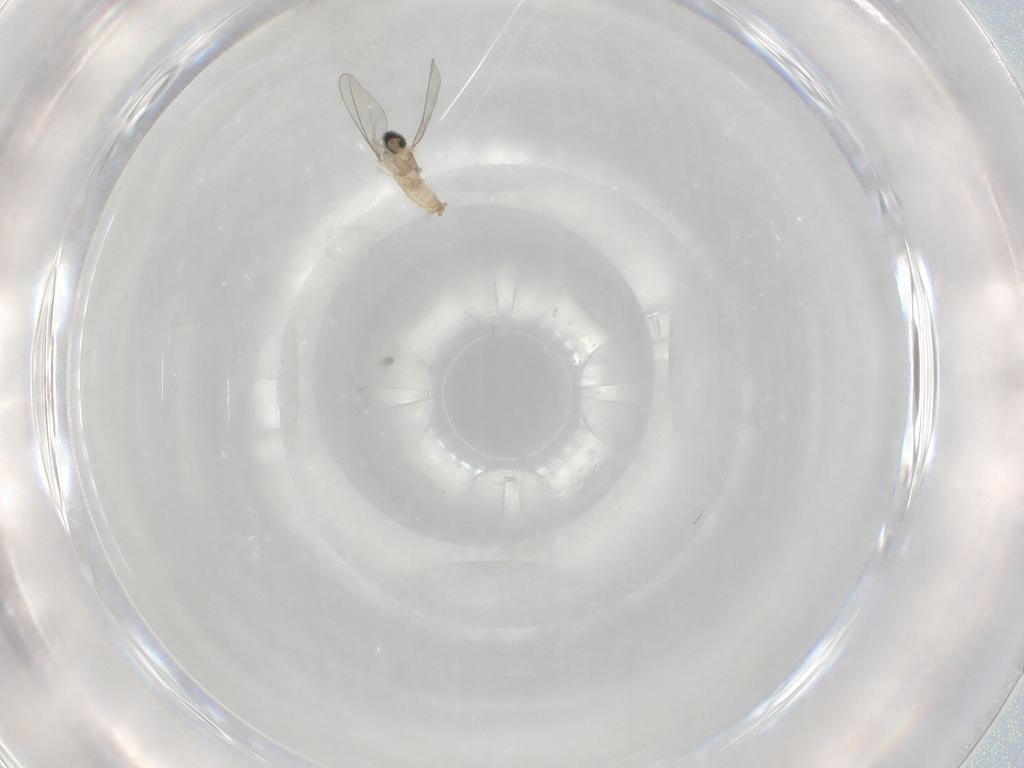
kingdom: Animalia
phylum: Arthropoda
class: Insecta
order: Diptera
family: Cecidomyiidae
